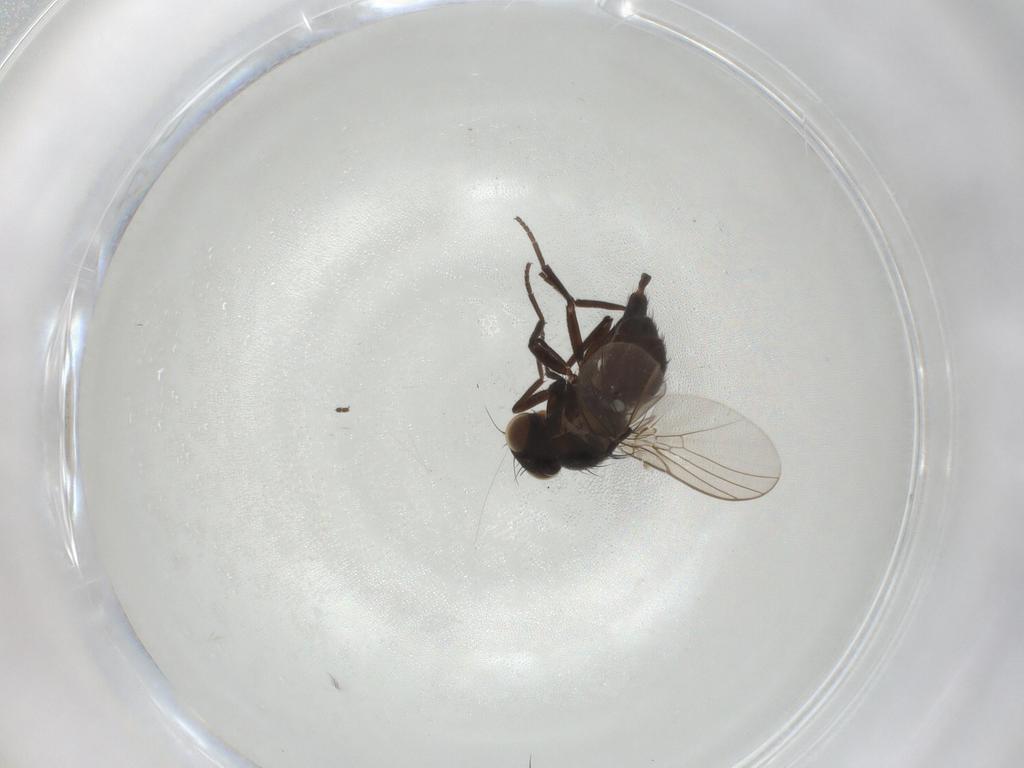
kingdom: Animalia
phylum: Arthropoda
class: Insecta
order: Diptera
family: Agromyzidae
